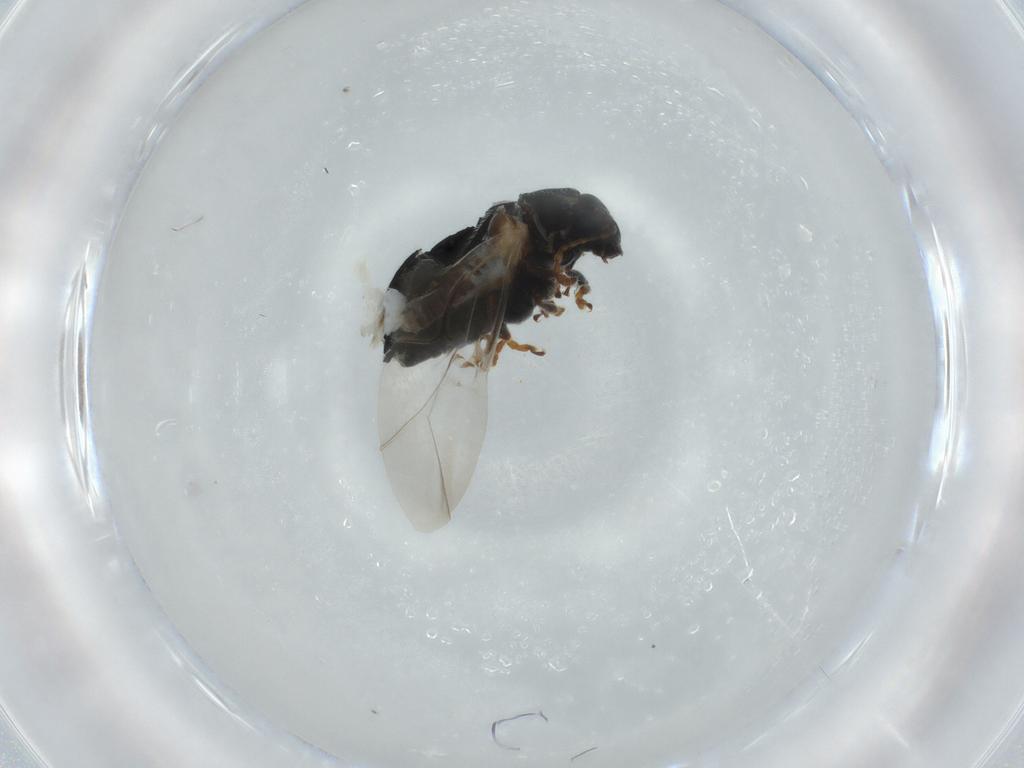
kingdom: Animalia
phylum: Arthropoda
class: Insecta
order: Coleoptera
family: Chrysomelidae
